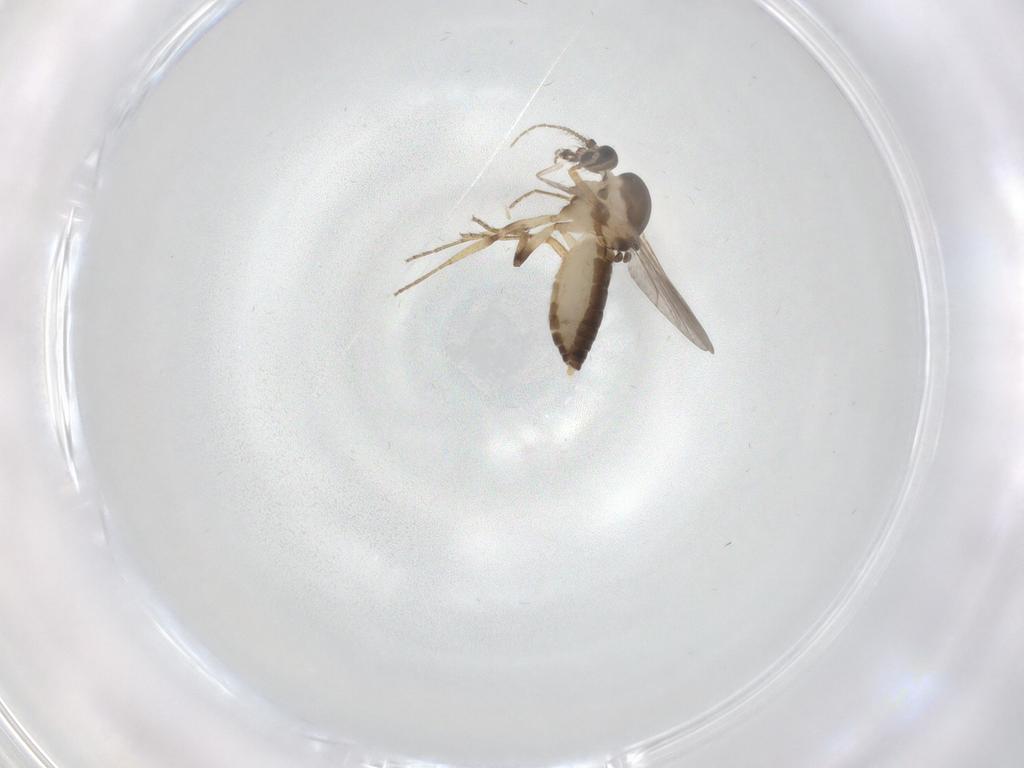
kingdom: Animalia
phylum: Arthropoda
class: Insecta
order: Diptera
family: Ceratopogonidae
